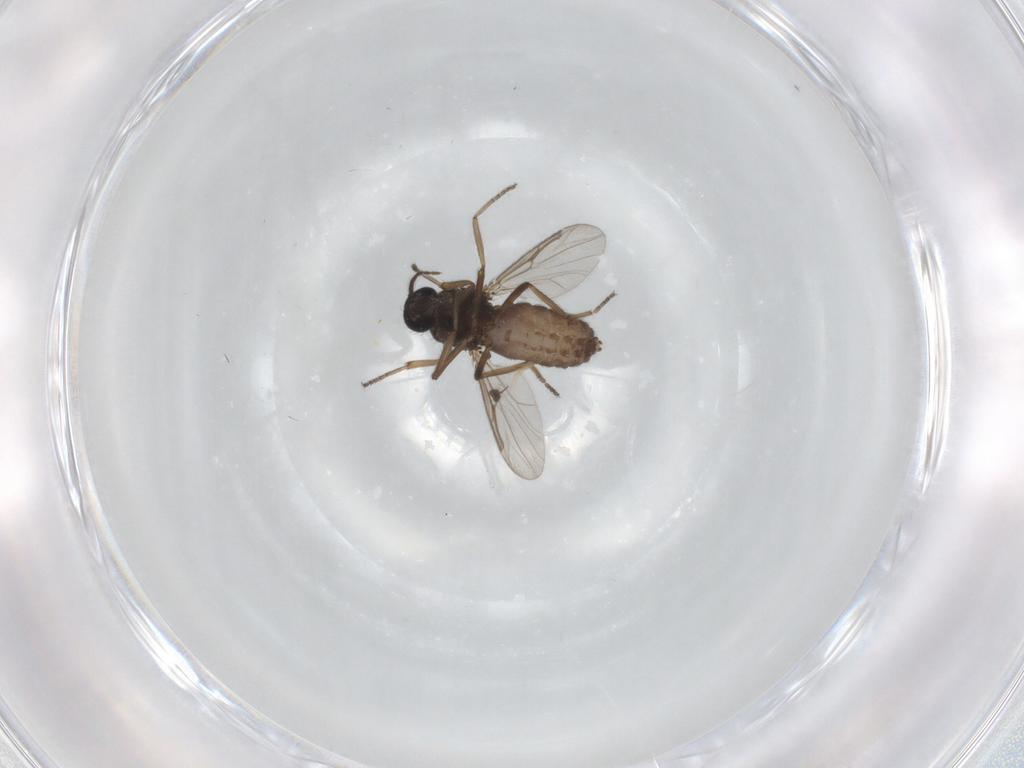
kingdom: Animalia
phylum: Arthropoda
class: Insecta
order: Diptera
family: Ceratopogonidae
